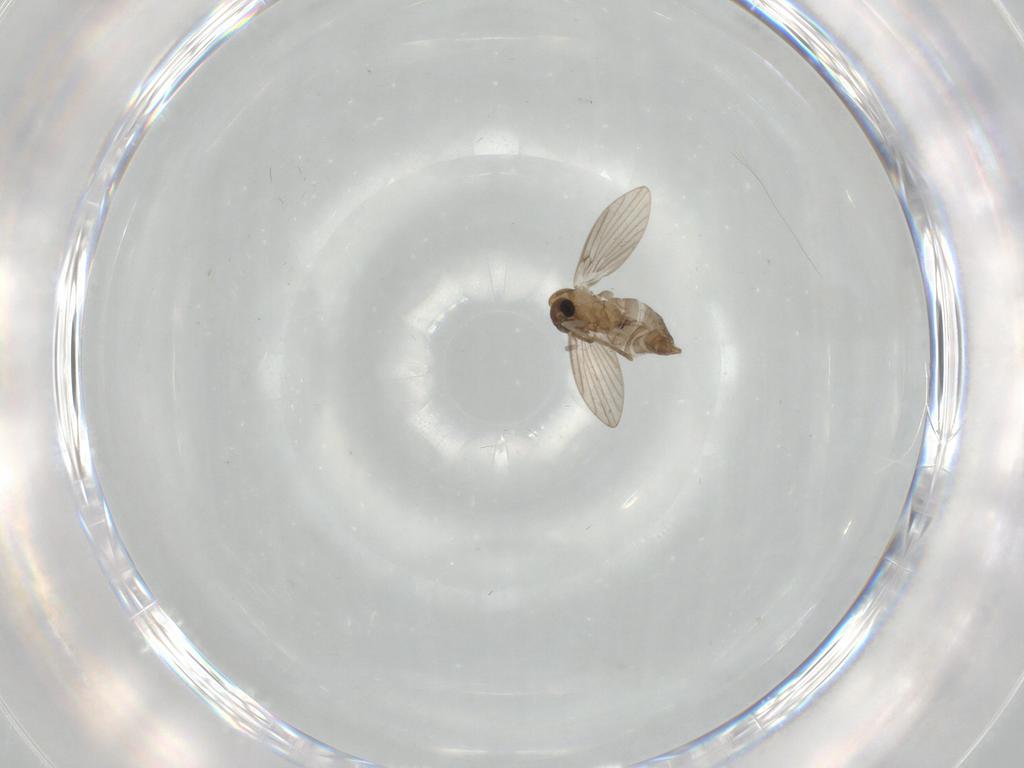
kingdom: Animalia
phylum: Arthropoda
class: Insecta
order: Diptera
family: Psychodidae
